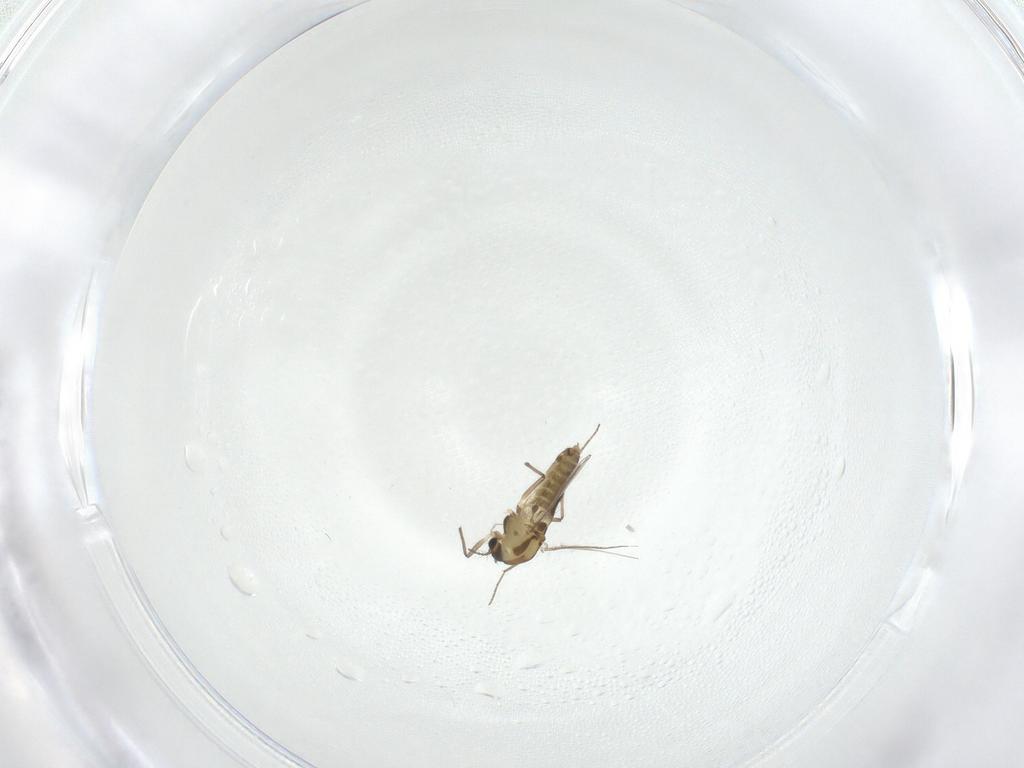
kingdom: Animalia
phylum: Arthropoda
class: Insecta
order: Diptera
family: Chironomidae
